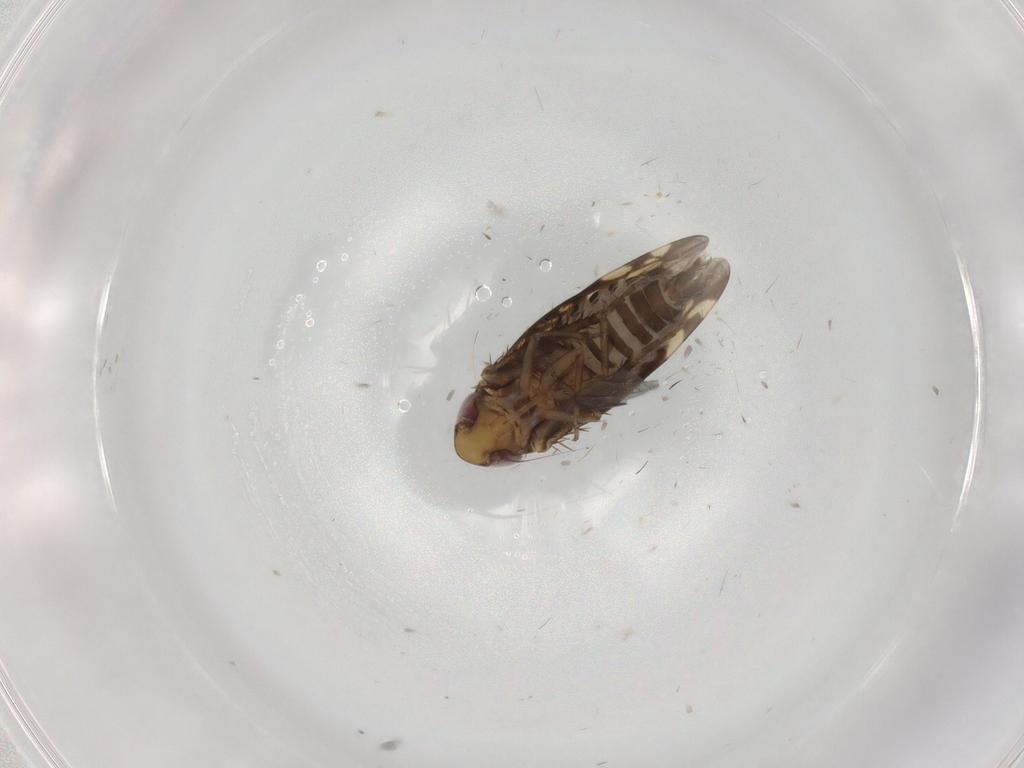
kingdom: Animalia
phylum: Arthropoda
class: Insecta
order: Hemiptera
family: Cicadellidae
